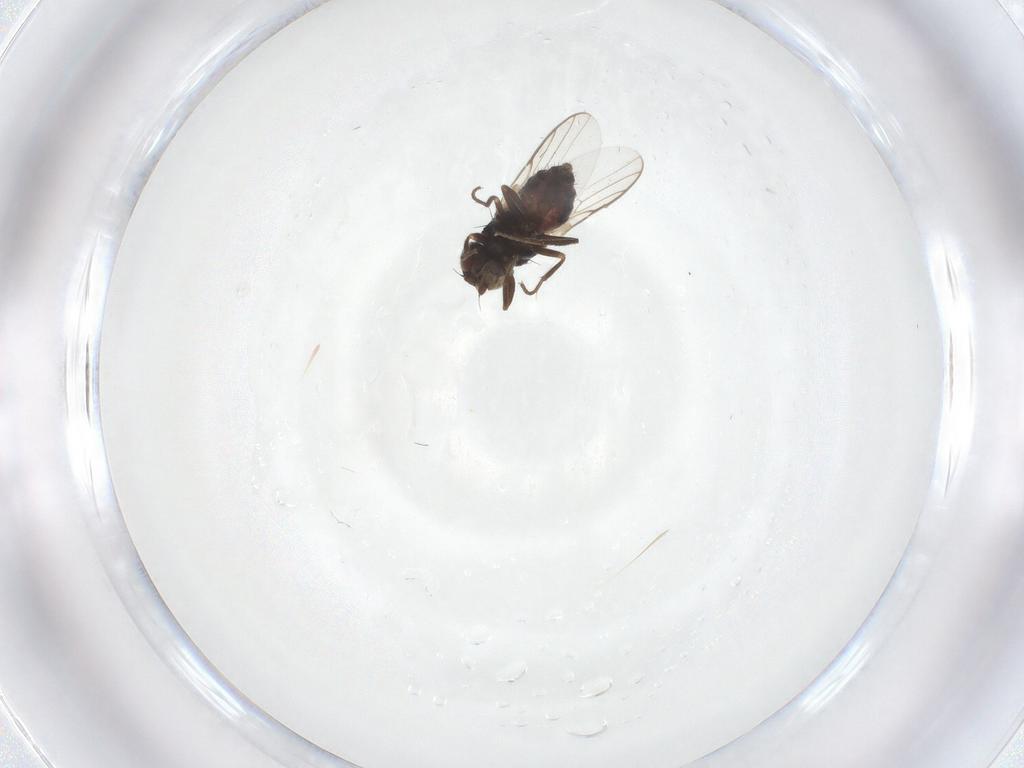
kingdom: Animalia
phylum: Arthropoda
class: Insecta
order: Diptera
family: Chloropidae
